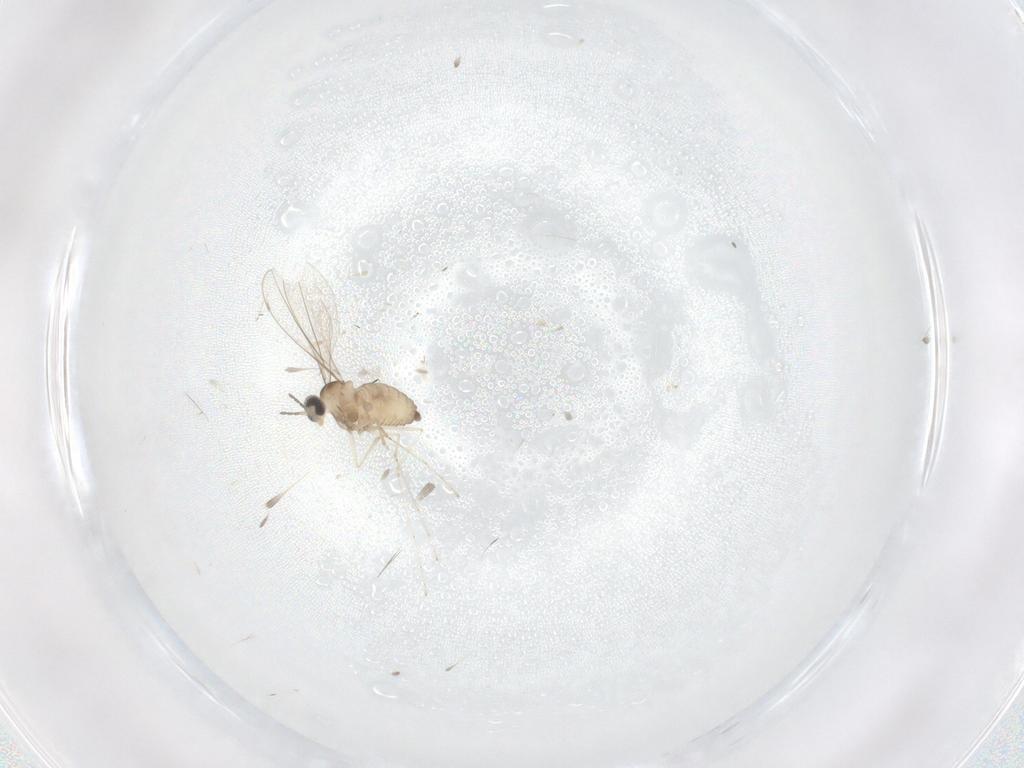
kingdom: Animalia
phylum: Arthropoda
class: Insecta
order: Diptera
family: Cecidomyiidae
